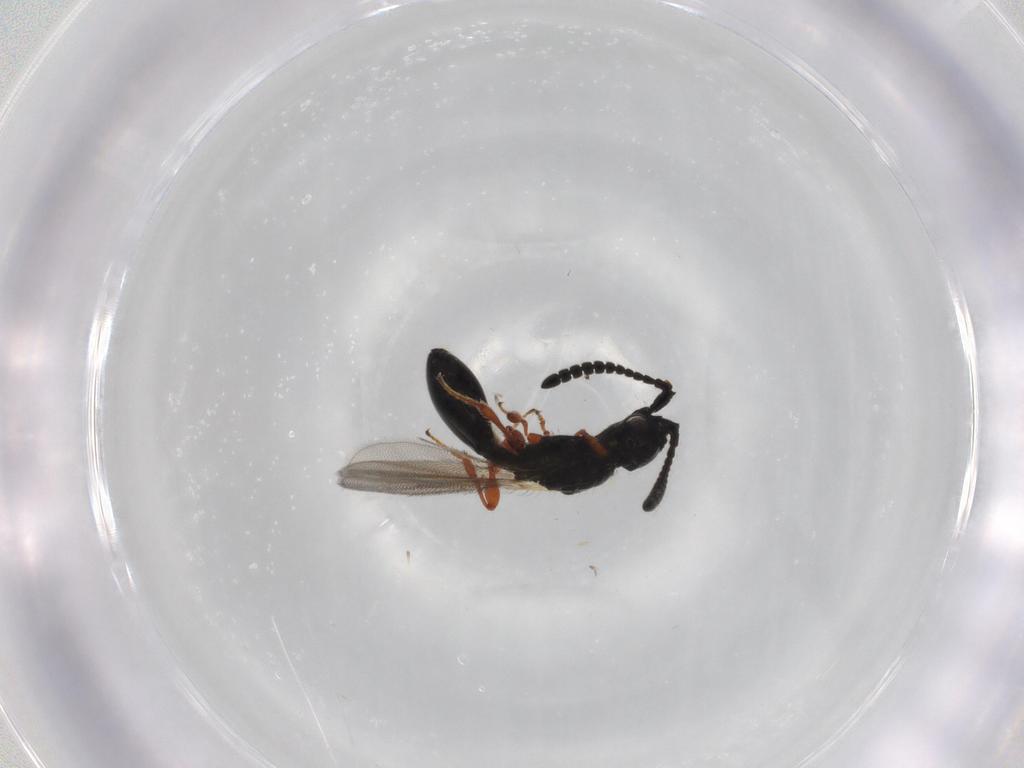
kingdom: Animalia
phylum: Arthropoda
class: Insecta
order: Hymenoptera
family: Diapriidae
